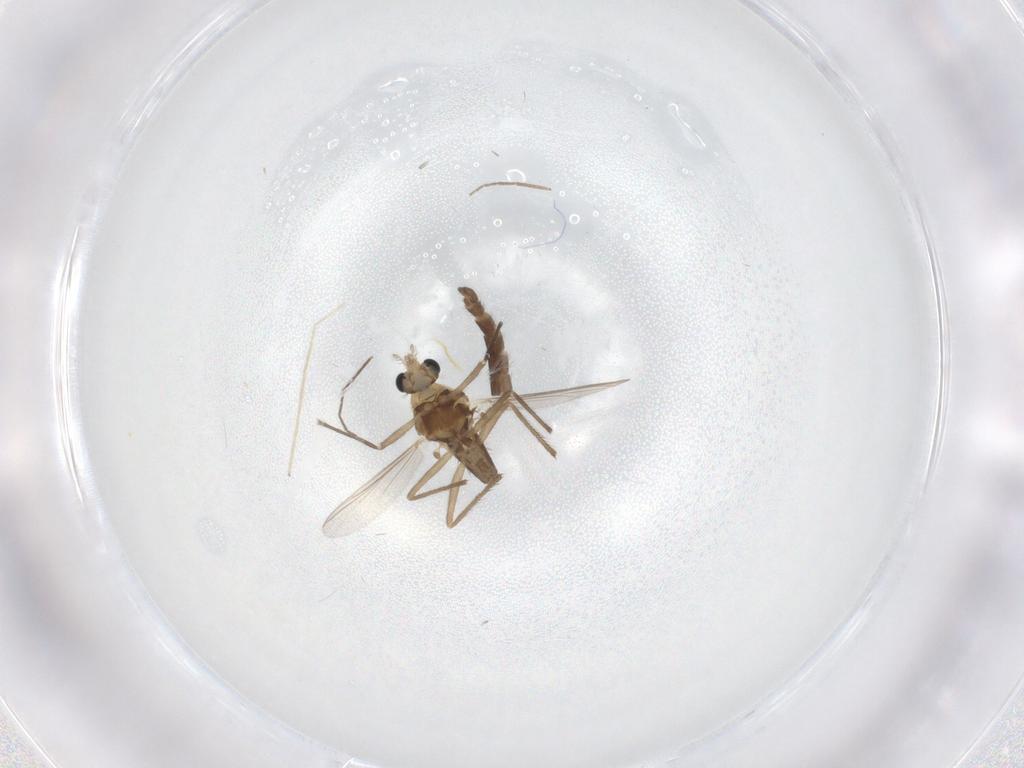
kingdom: Animalia
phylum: Arthropoda
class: Insecta
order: Diptera
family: Chironomidae
